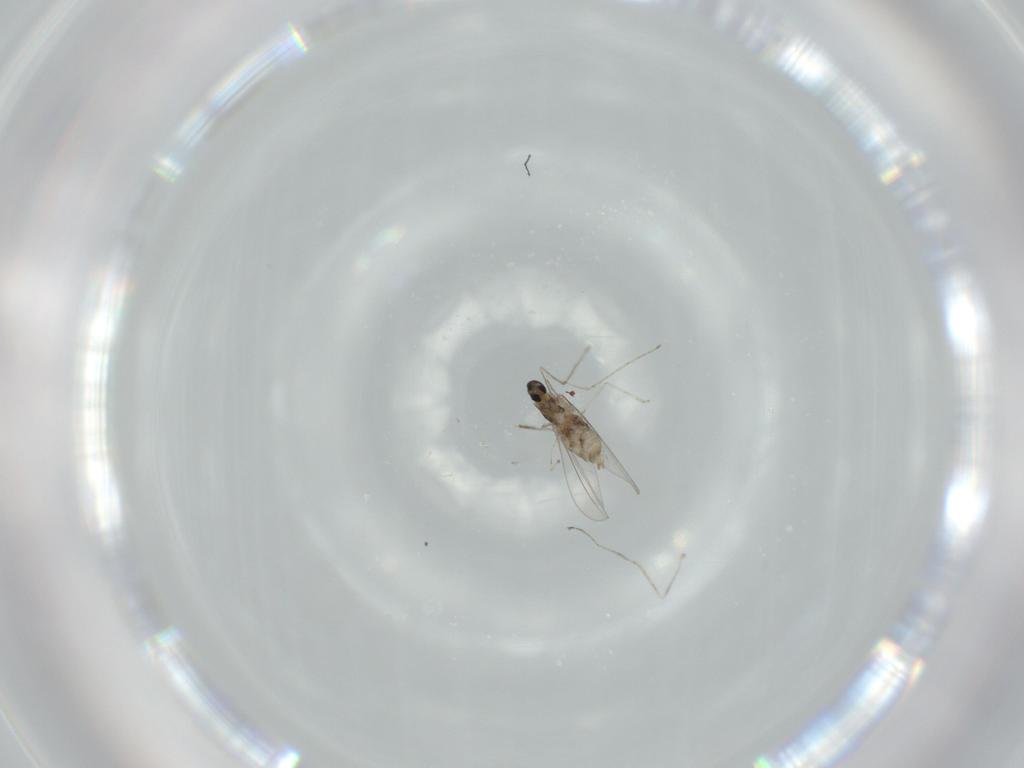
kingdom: Animalia
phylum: Arthropoda
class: Insecta
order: Diptera
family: Cecidomyiidae
